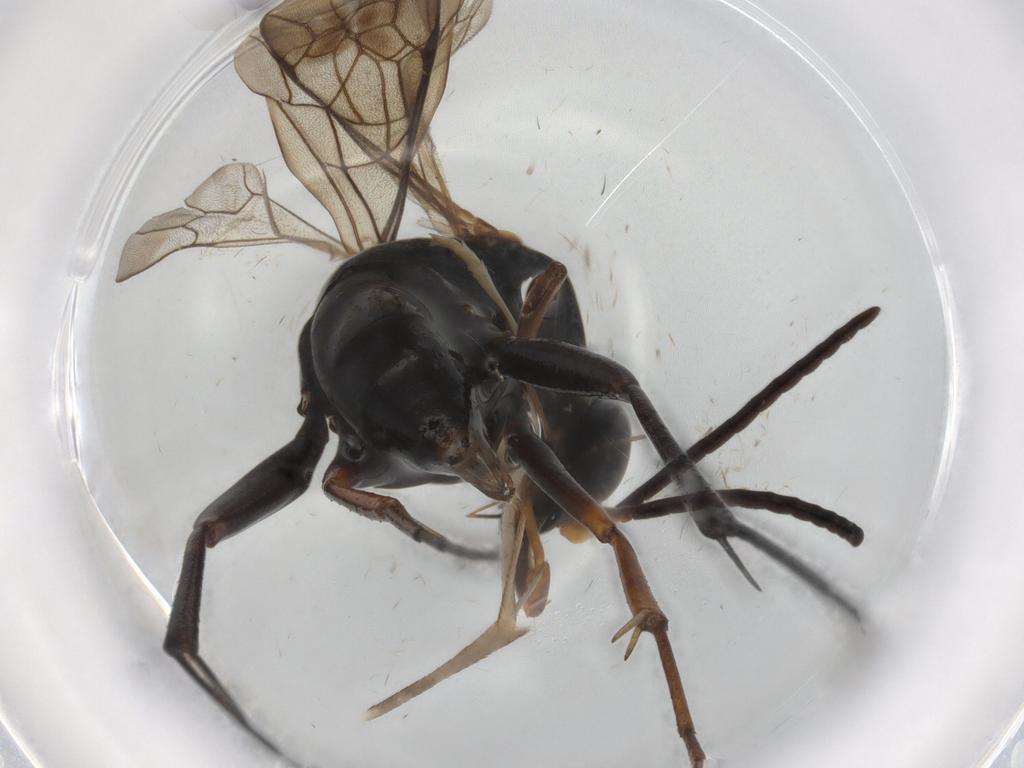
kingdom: Animalia
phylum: Arthropoda
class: Insecta
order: Hymenoptera
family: Formicidae
